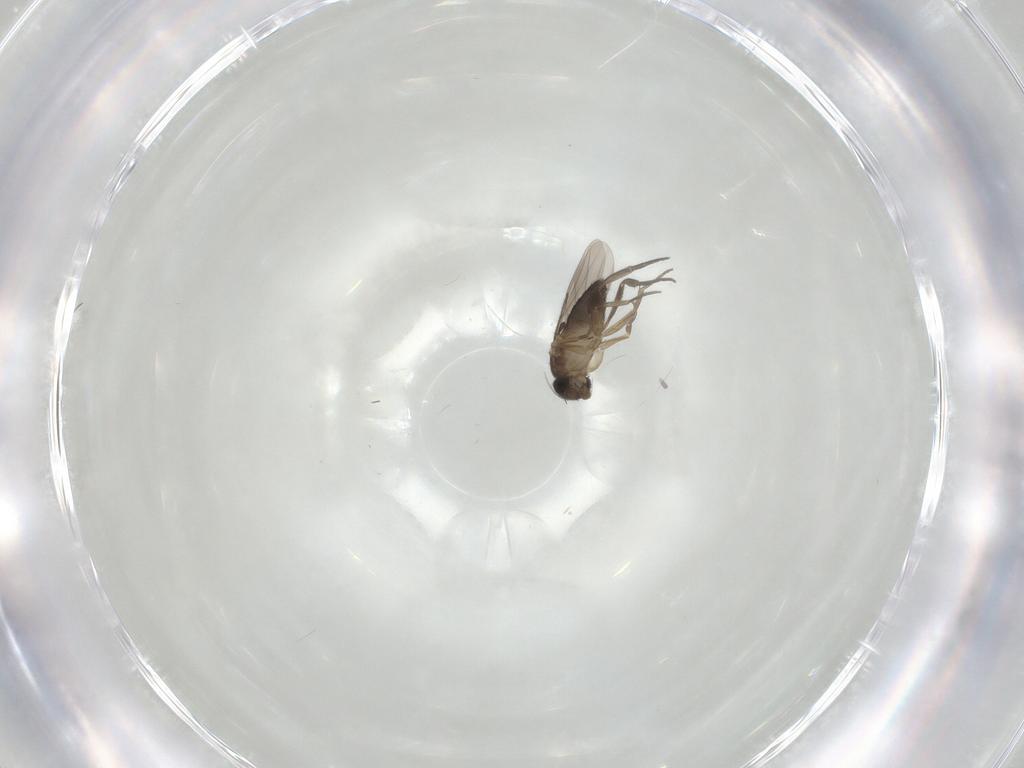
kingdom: Animalia
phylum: Arthropoda
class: Insecta
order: Diptera
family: Phoridae
